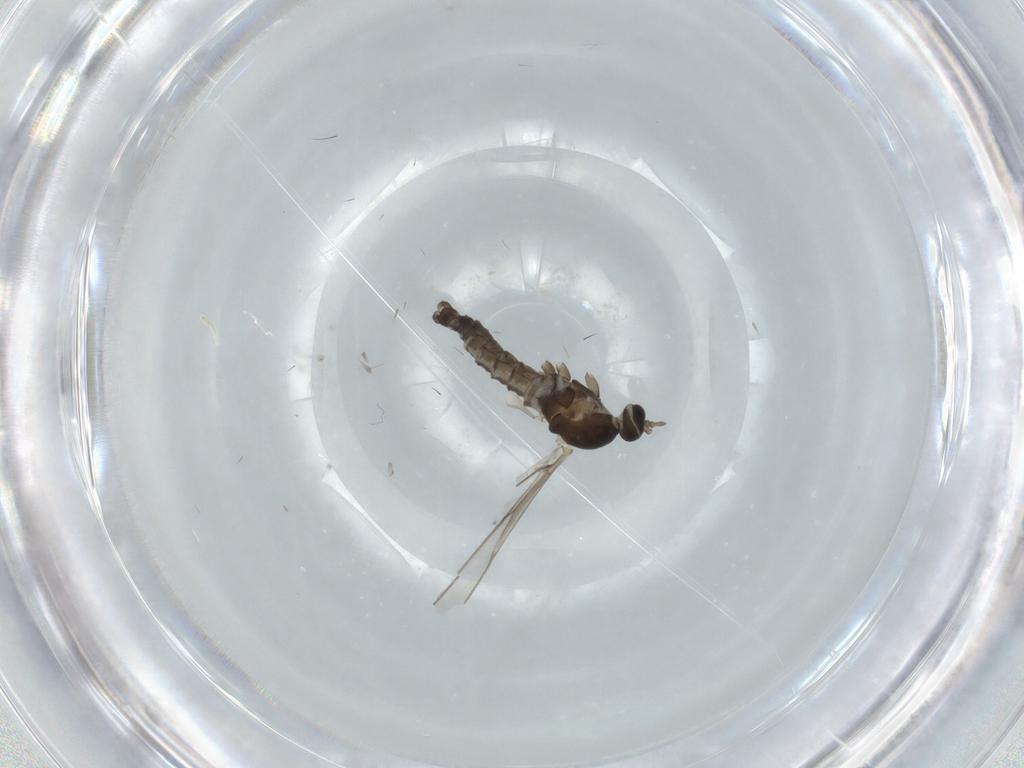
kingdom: Animalia
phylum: Arthropoda
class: Insecta
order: Diptera
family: Cecidomyiidae
